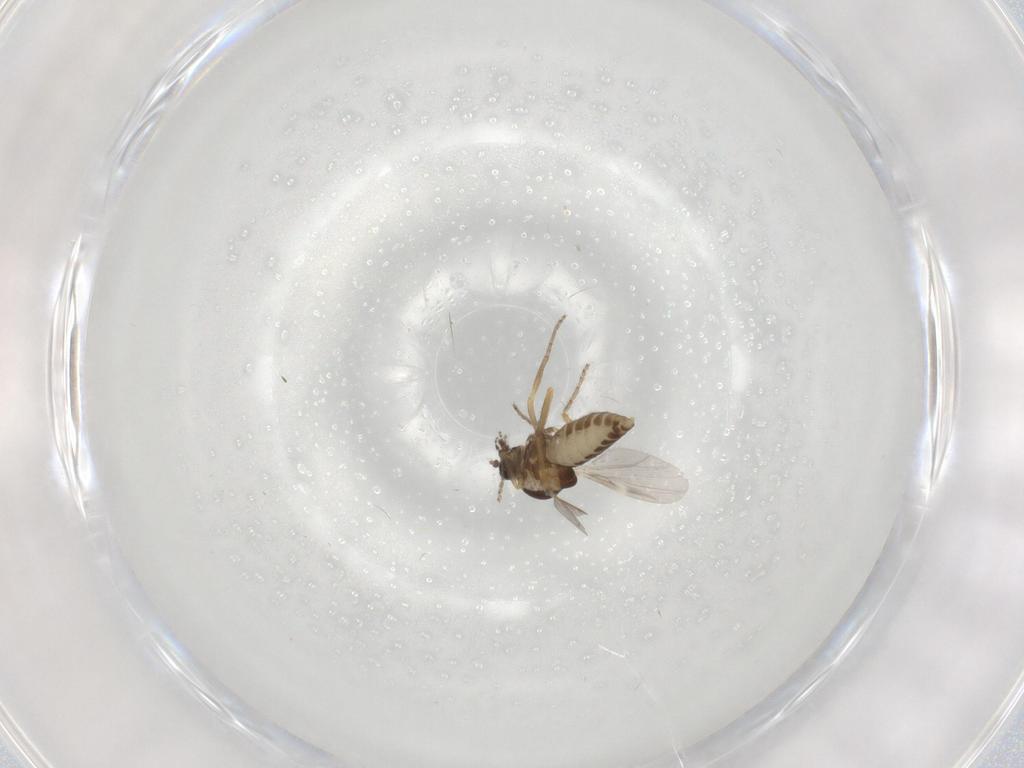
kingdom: Animalia
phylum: Arthropoda
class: Insecta
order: Diptera
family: Ceratopogonidae
